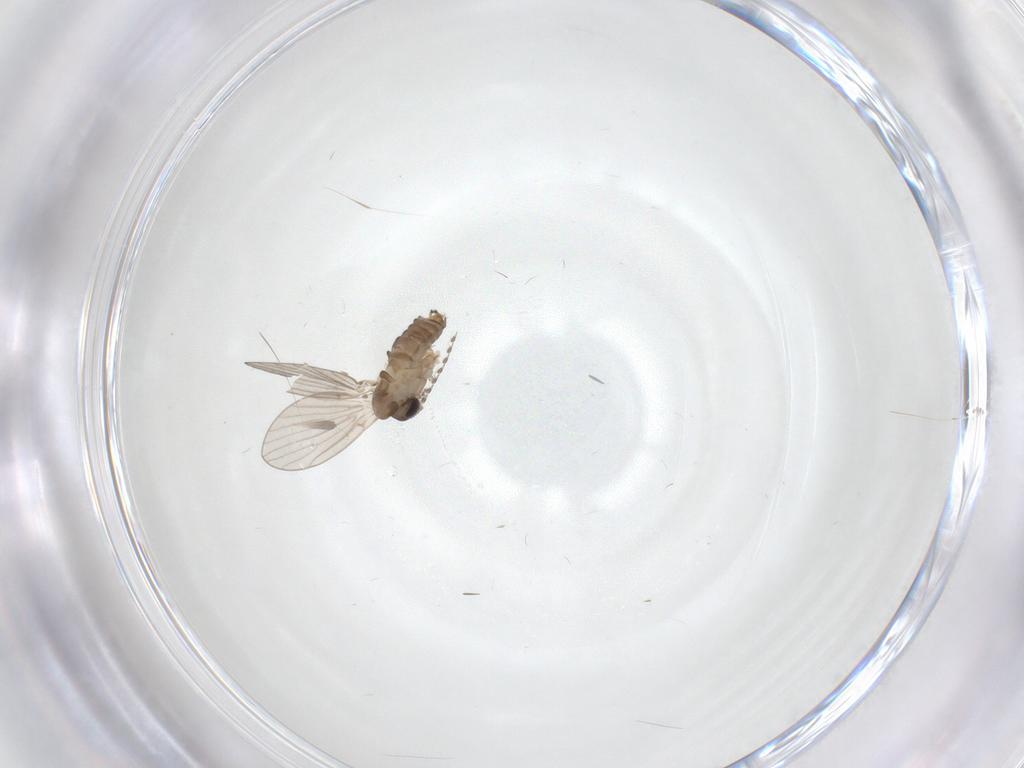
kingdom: Animalia
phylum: Arthropoda
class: Insecta
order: Diptera
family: Psychodidae
